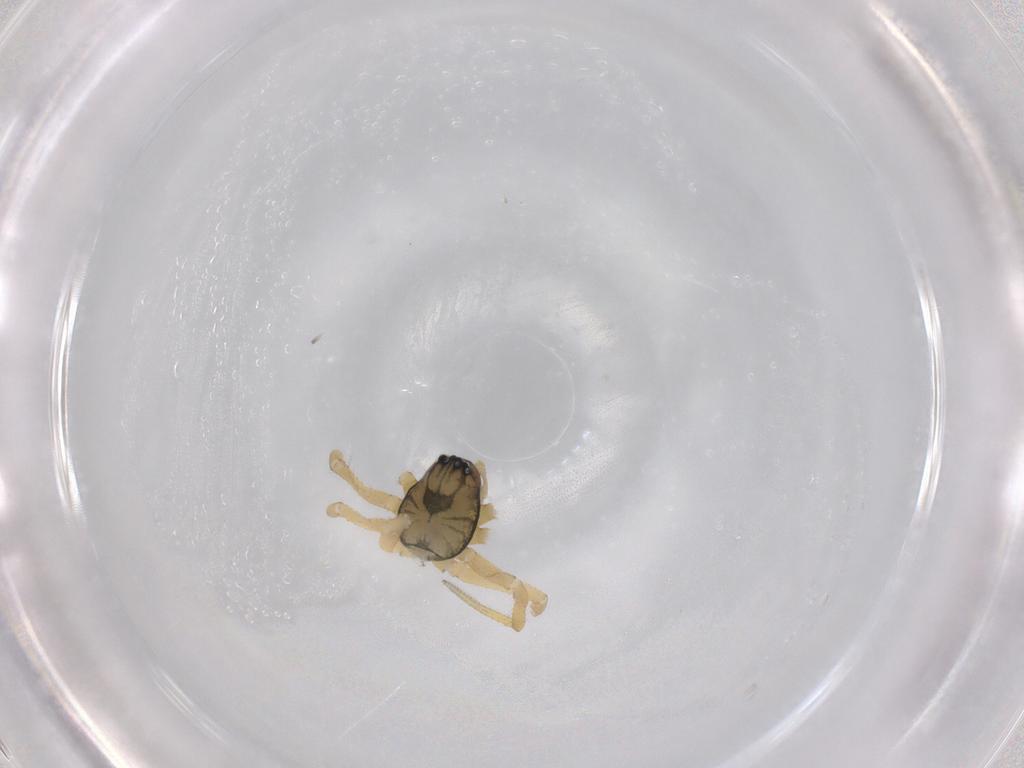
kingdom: Animalia
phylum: Arthropoda
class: Arachnida
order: Araneae
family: Linyphiidae
